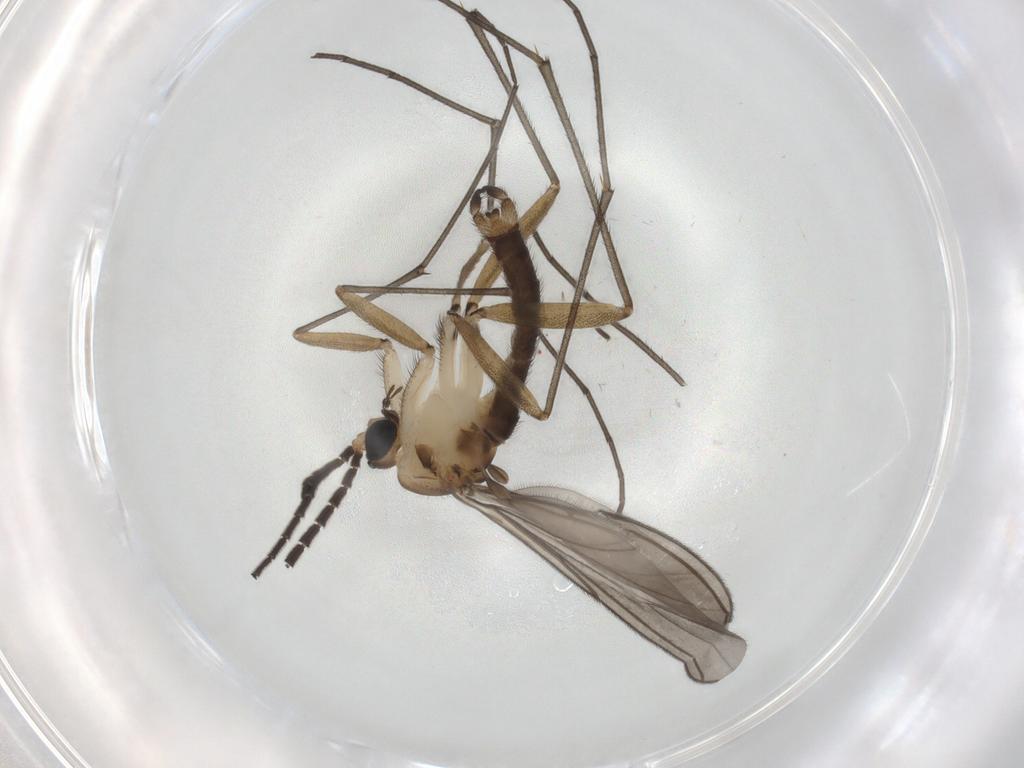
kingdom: Animalia
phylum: Arthropoda
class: Insecta
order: Diptera
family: Sciaridae
